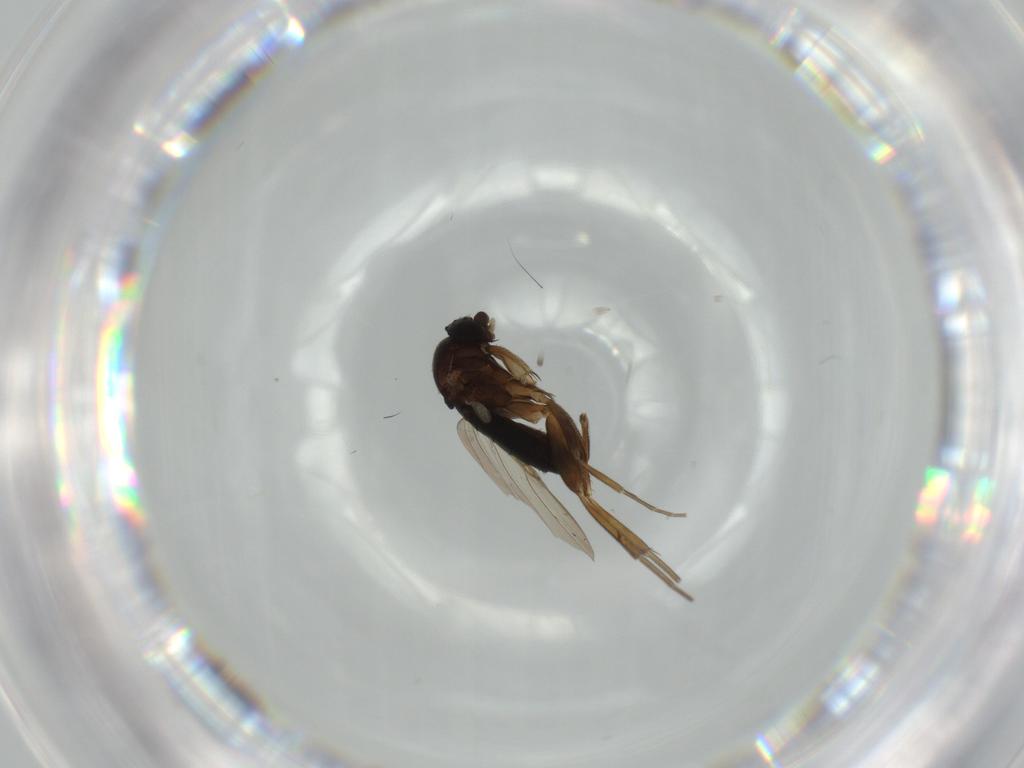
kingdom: Animalia
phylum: Arthropoda
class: Insecta
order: Diptera
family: Phoridae
